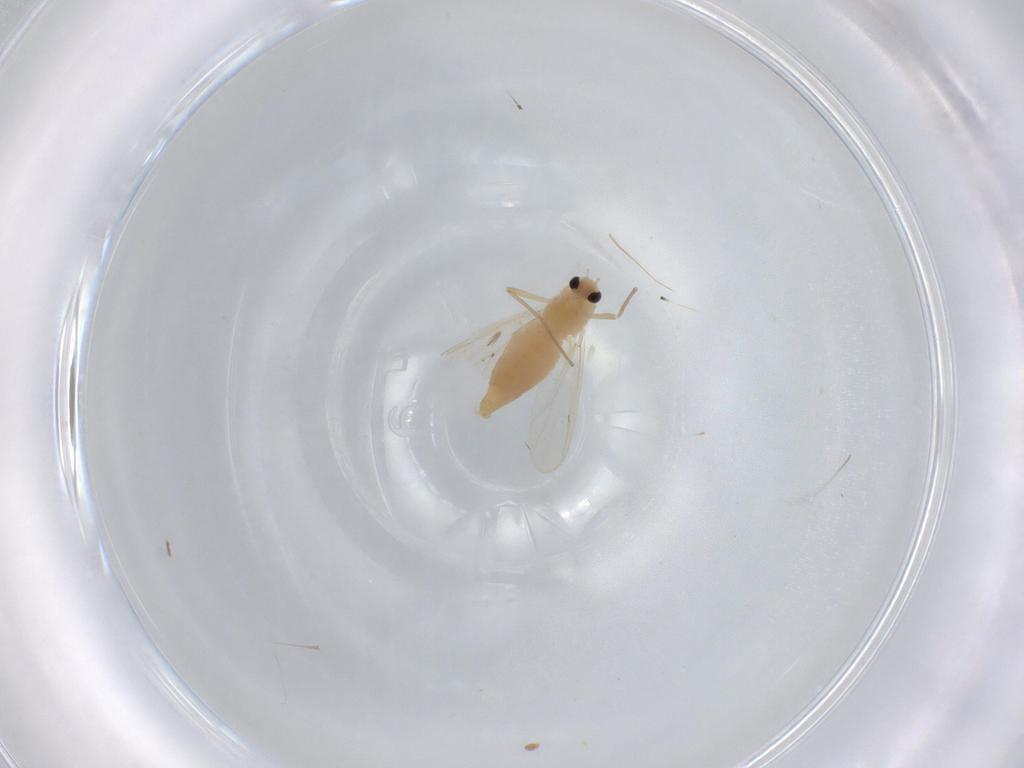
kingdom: Animalia
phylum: Arthropoda
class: Insecta
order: Diptera
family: Chironomidae
